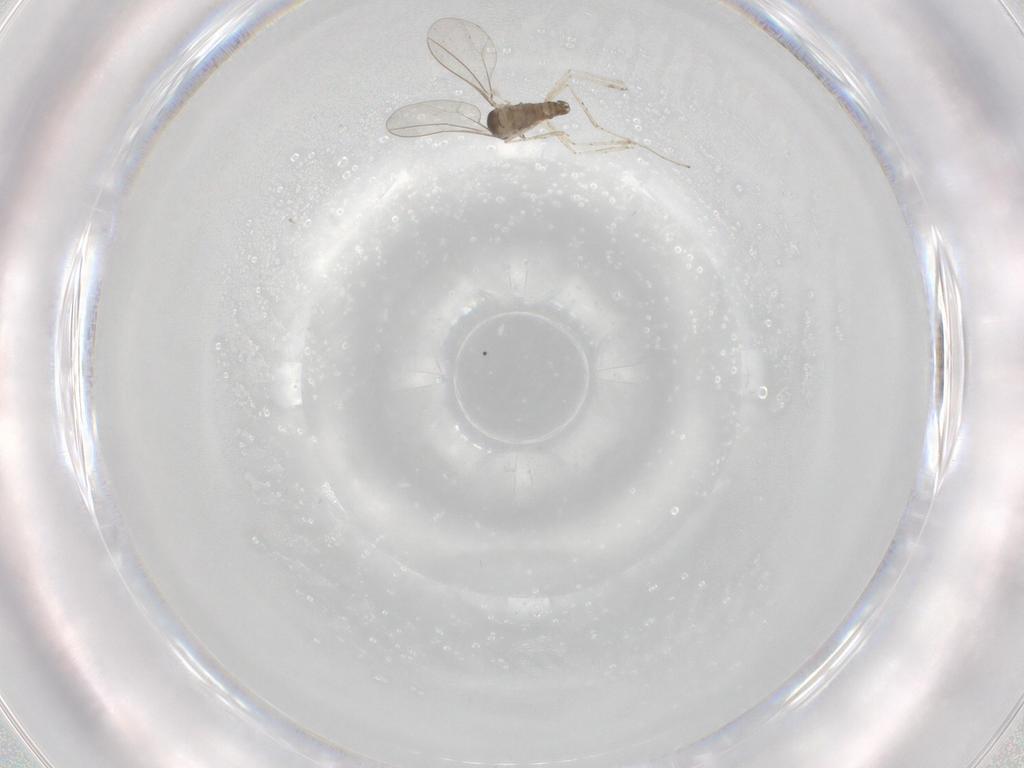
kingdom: Animalia
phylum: Arthropoda
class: Insecta
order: Diptera
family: Cecidomyiidae
